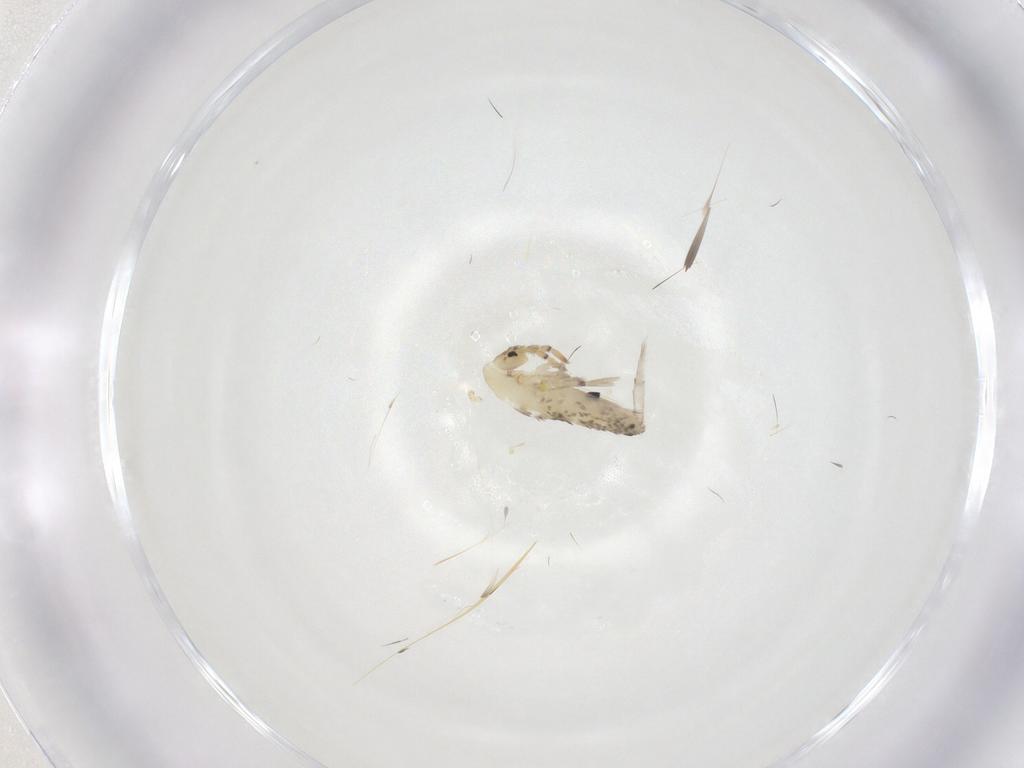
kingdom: Animalia
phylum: Arthropoda
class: Collembola
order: Entomobryomorpha
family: Entomobryidae
